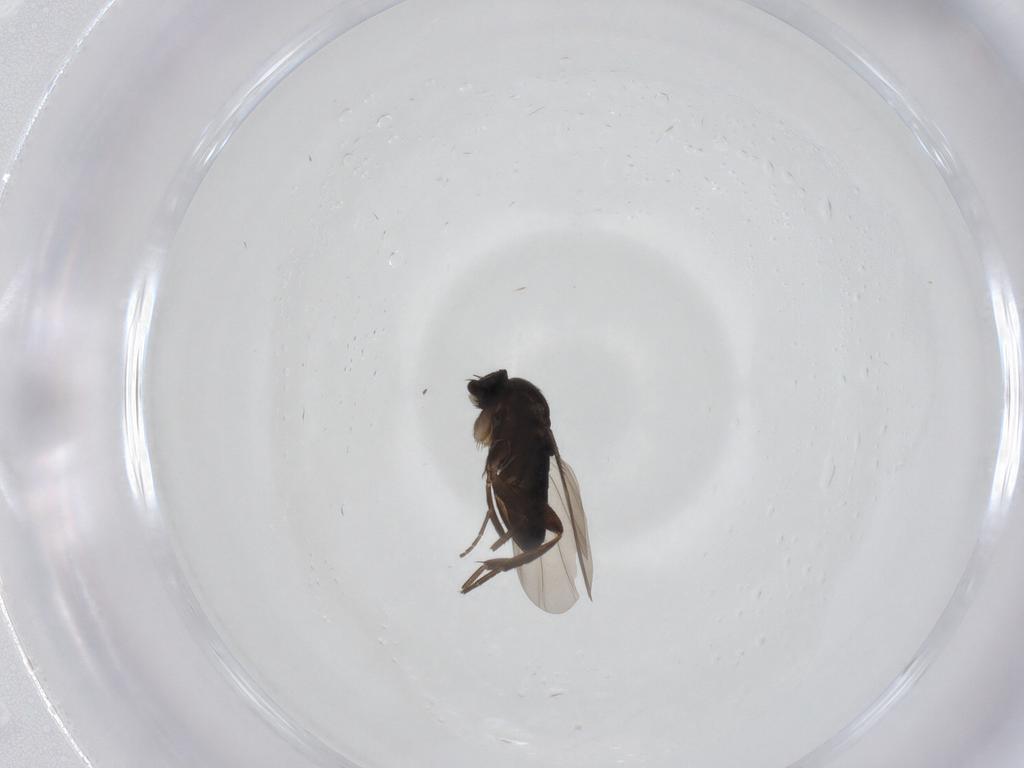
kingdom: Animalia
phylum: Arthropoda
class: Insecta
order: Diptera
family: Phoridae
